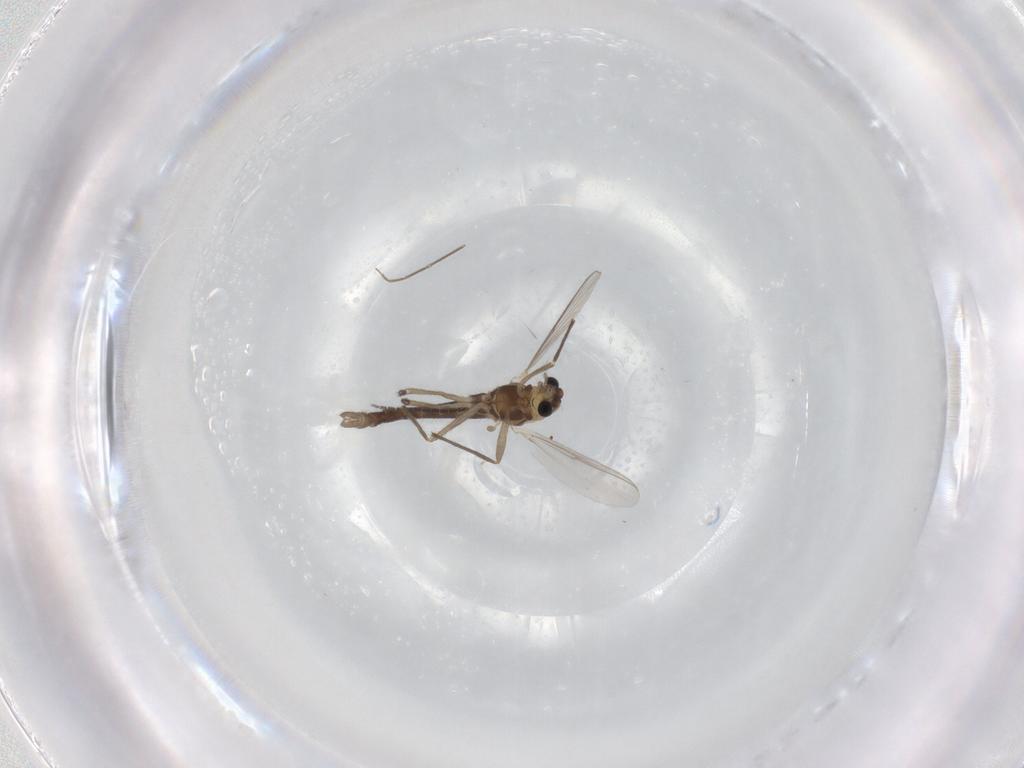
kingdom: Animalia
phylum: Arthropoda
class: Insecta
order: Diptera
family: Chironomidae
